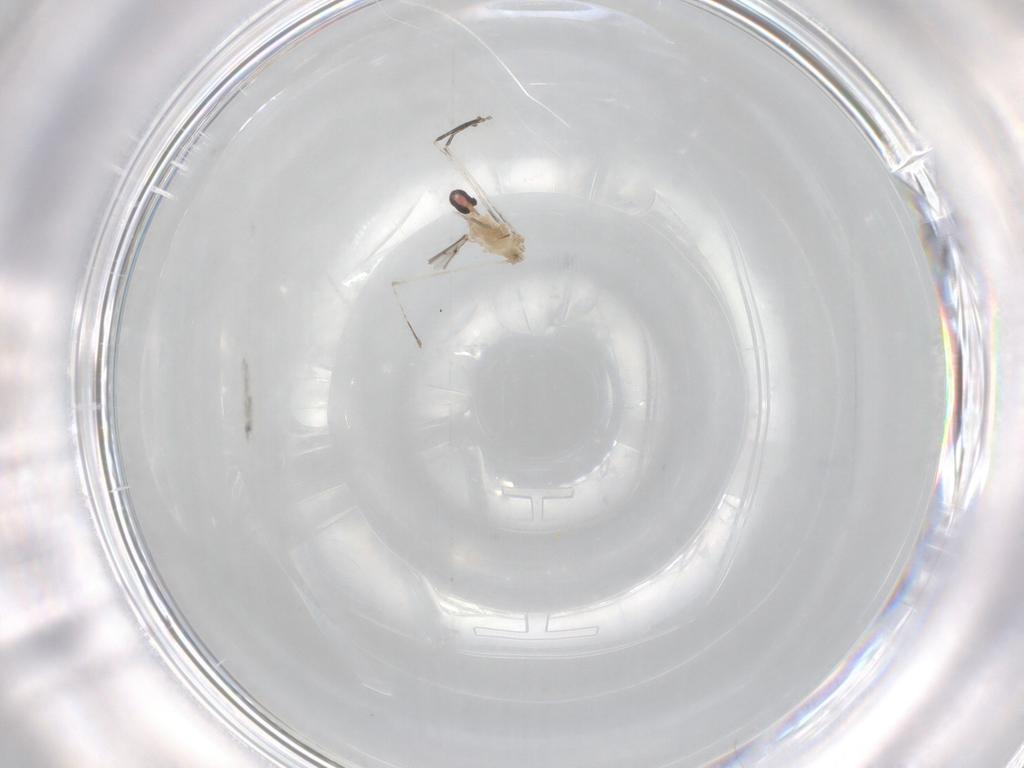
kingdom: Animalia
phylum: Arthropoda
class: Insecta
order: Diptera
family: Cecidomyiidae
